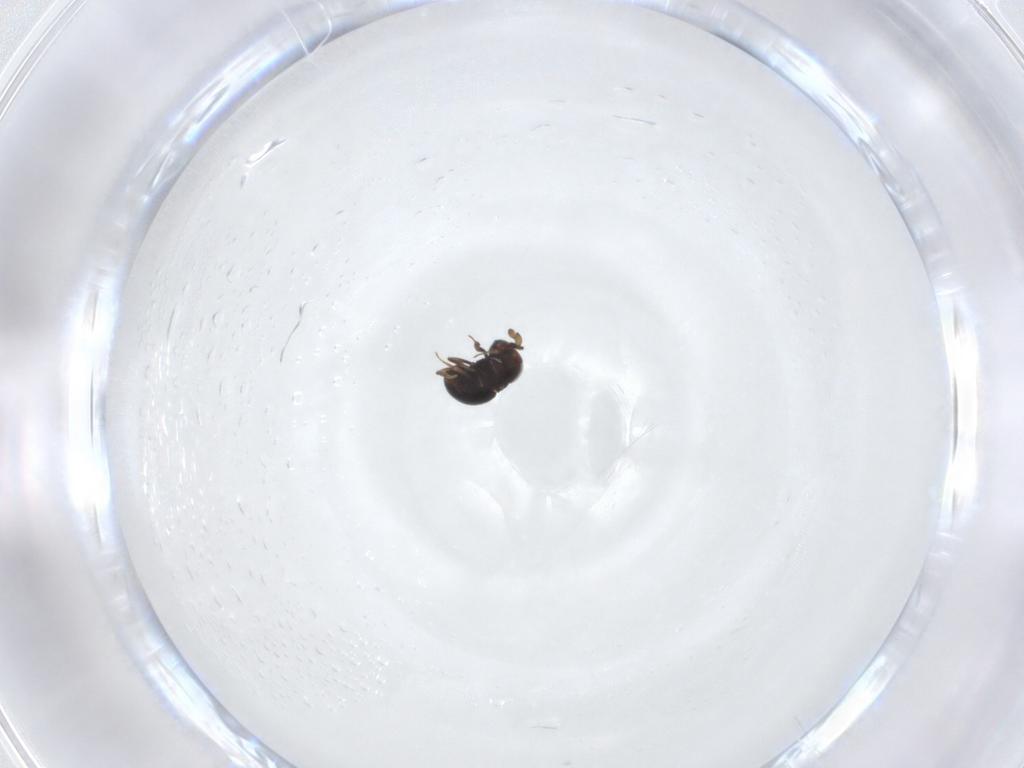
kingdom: Animalia
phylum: Arthropoda
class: Insecta
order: Hymenoptera
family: Scelionidae
